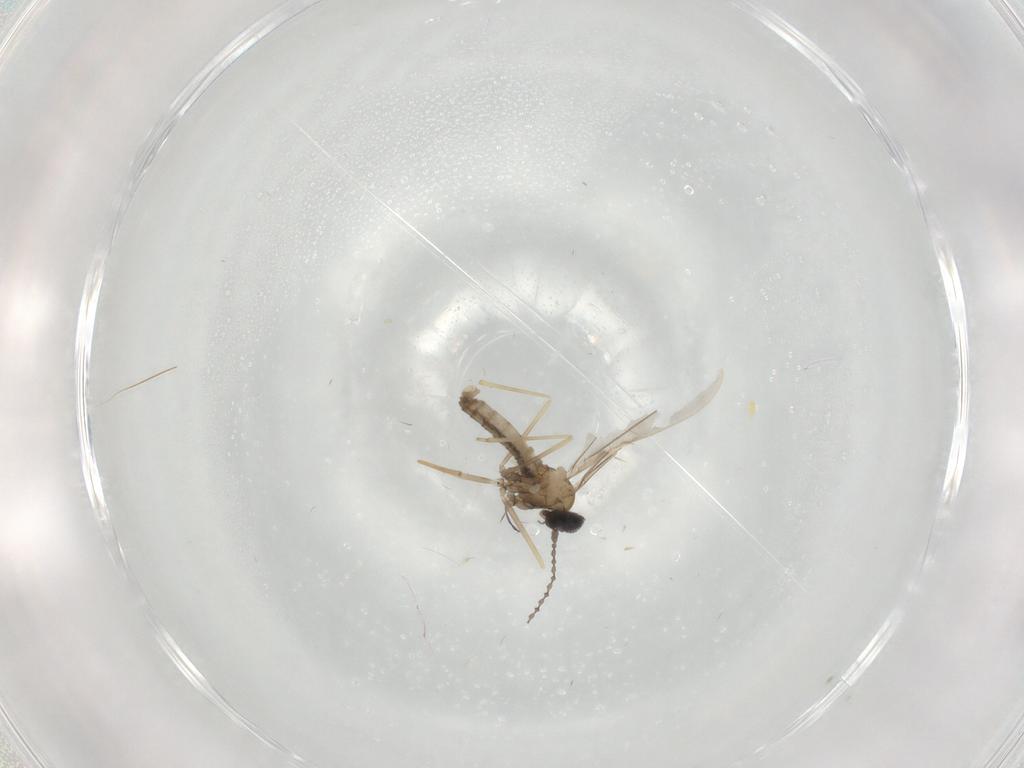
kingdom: Animalia
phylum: Arthropoda
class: Insecta
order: Diptera
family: Cecidomyiidae
